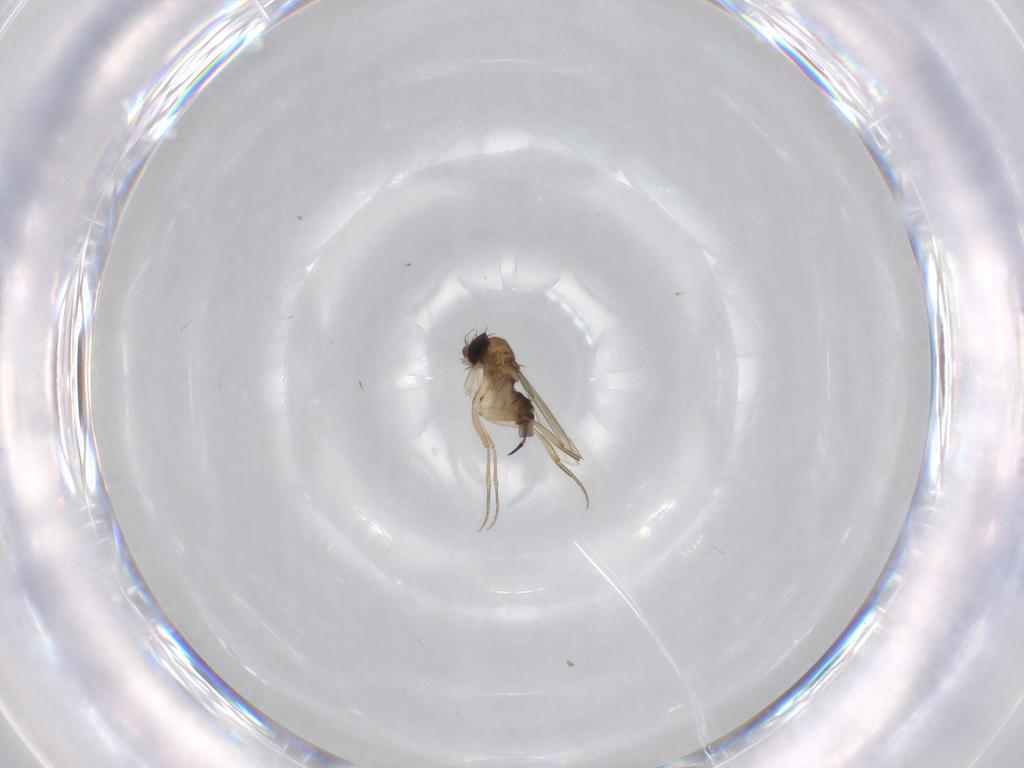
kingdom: Animalia
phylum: Arthropoda
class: Insecta
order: Diptera
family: Phoridae
